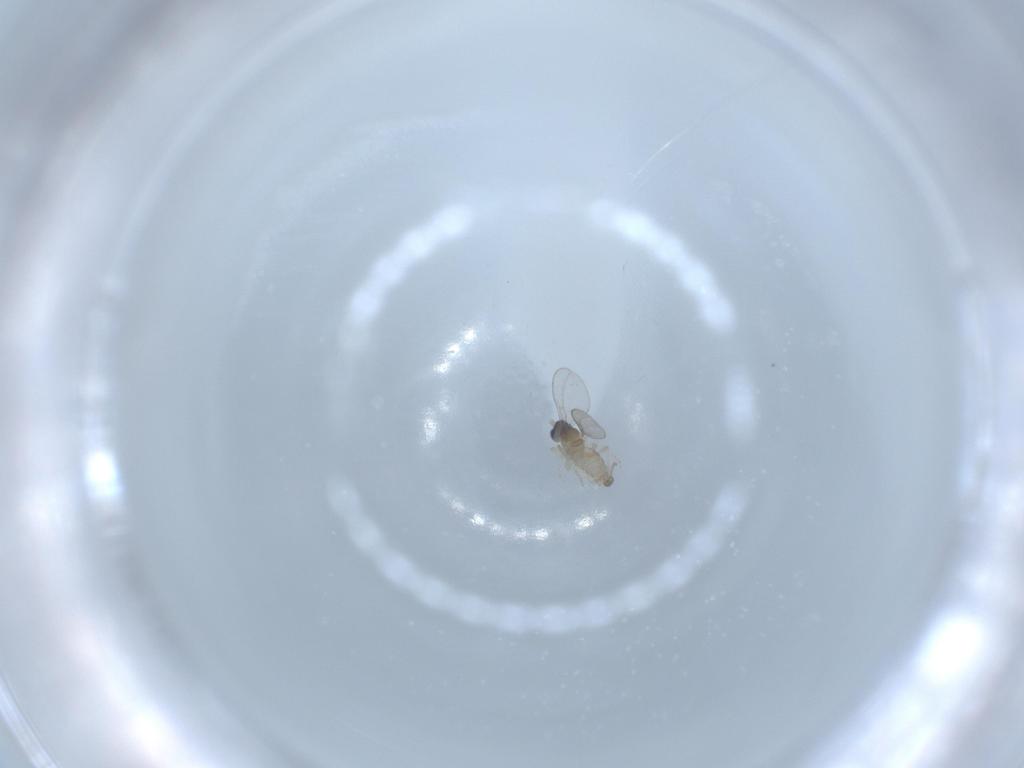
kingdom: Animalia
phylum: Arthropoda
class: Insecta
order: Diptera
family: Cecidomyiidae
